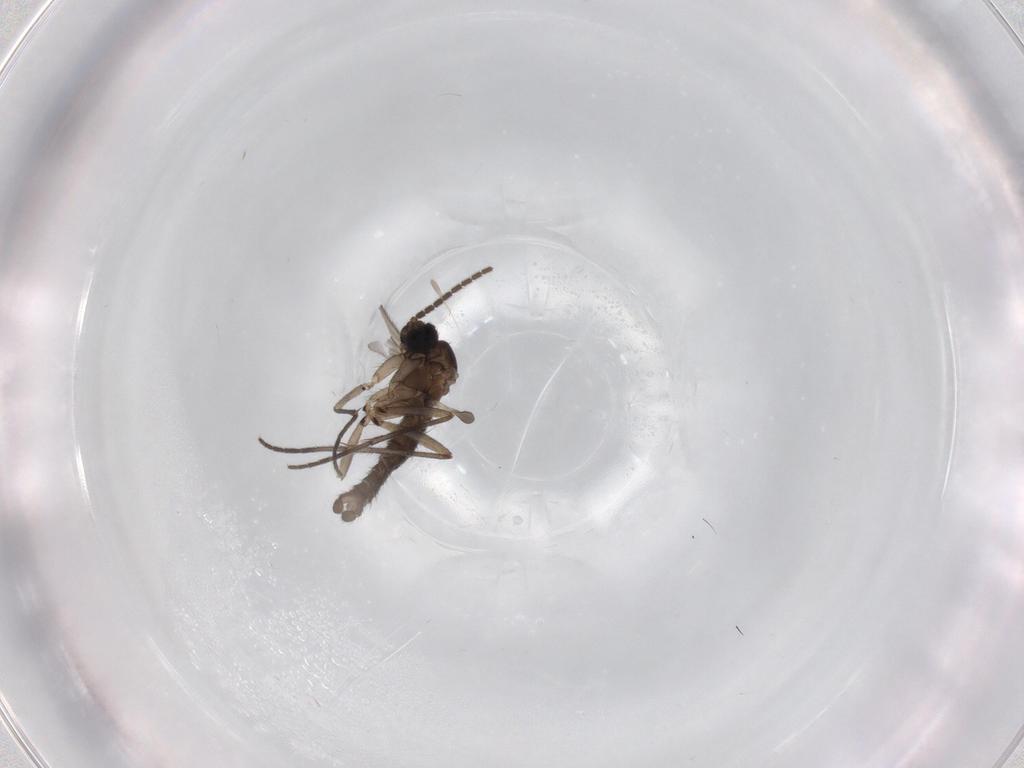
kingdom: Animalia
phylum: Arthropoda
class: Insecta
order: Diptera
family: Sciaridae
